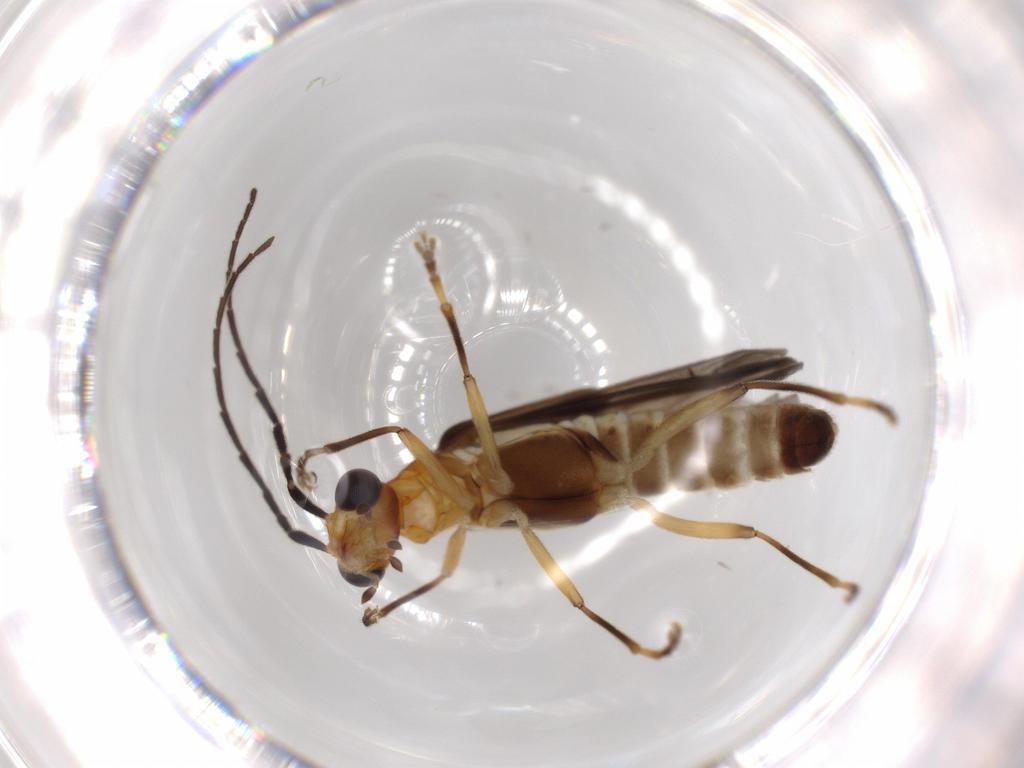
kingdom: Animalia
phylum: Arthropoda
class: Insecta
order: Coleoptera
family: Cantharidae
